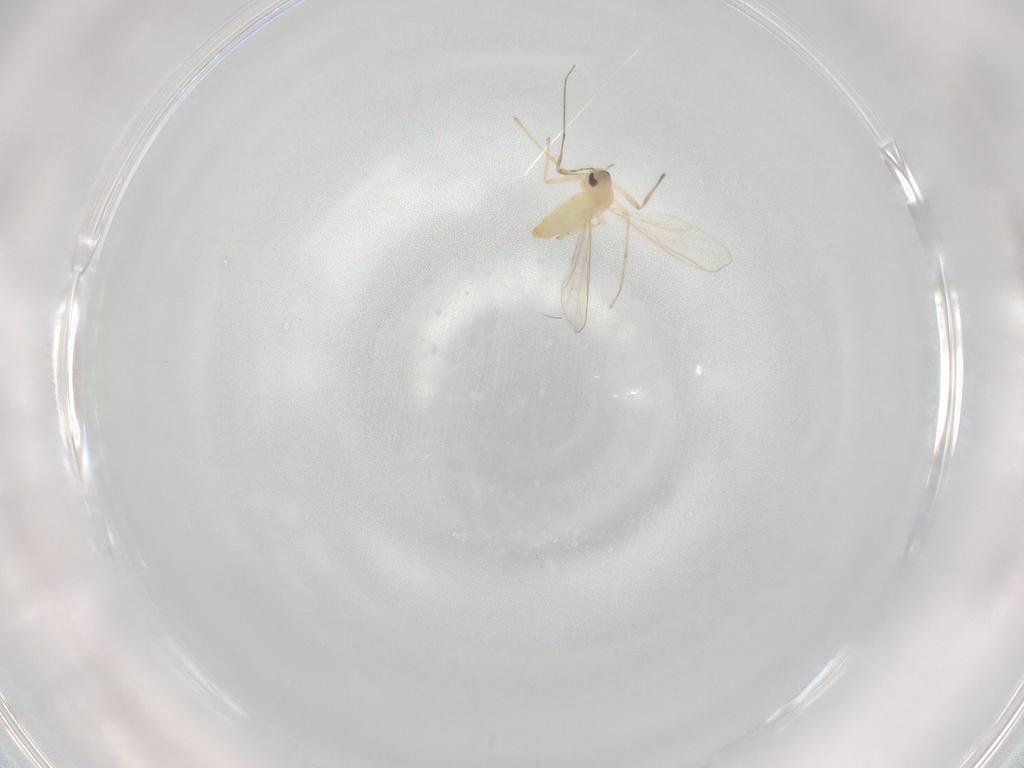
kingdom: Animalia
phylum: Arthropoda
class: Insecta
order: Diptera
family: Chironomidae
